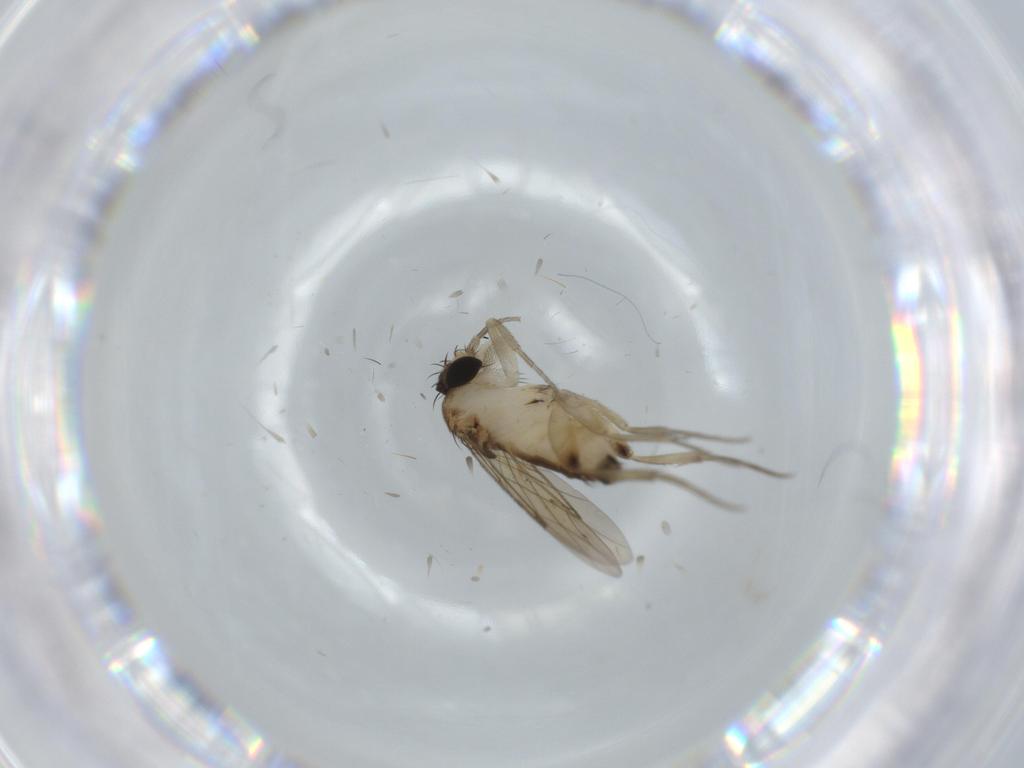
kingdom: Animalia
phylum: Arthropoda
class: Insecta
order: Diptera
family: Phoridae
